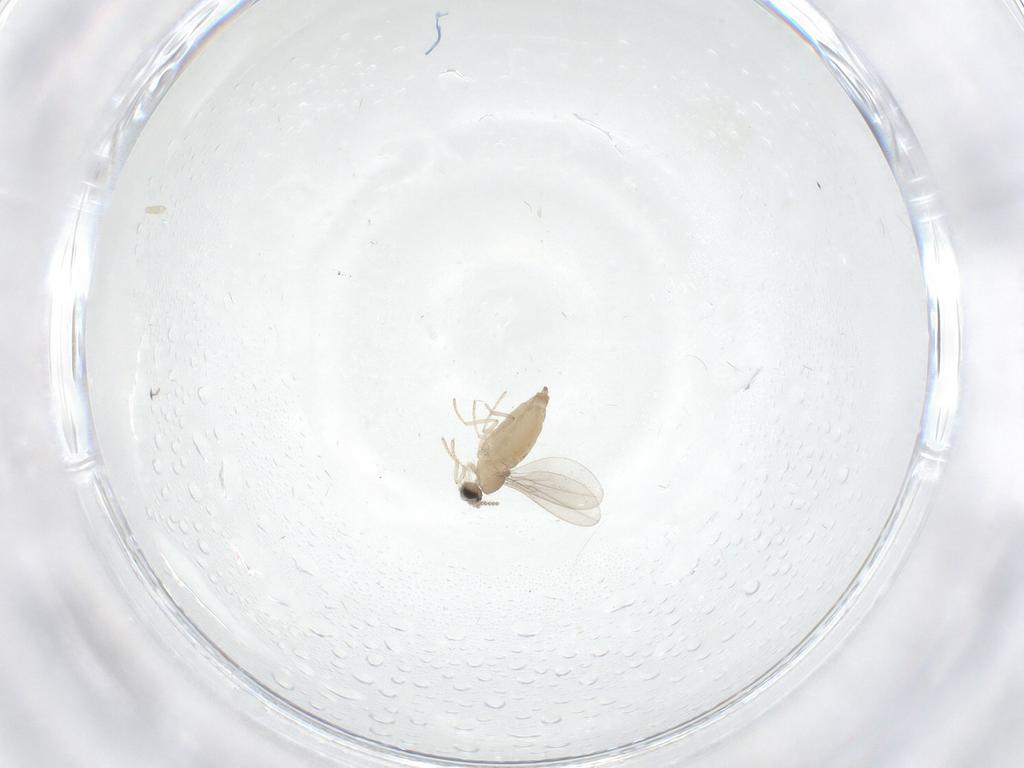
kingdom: Animalia
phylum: Arthropoda
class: Insecta
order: Diptera
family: Cecidomyiidae
